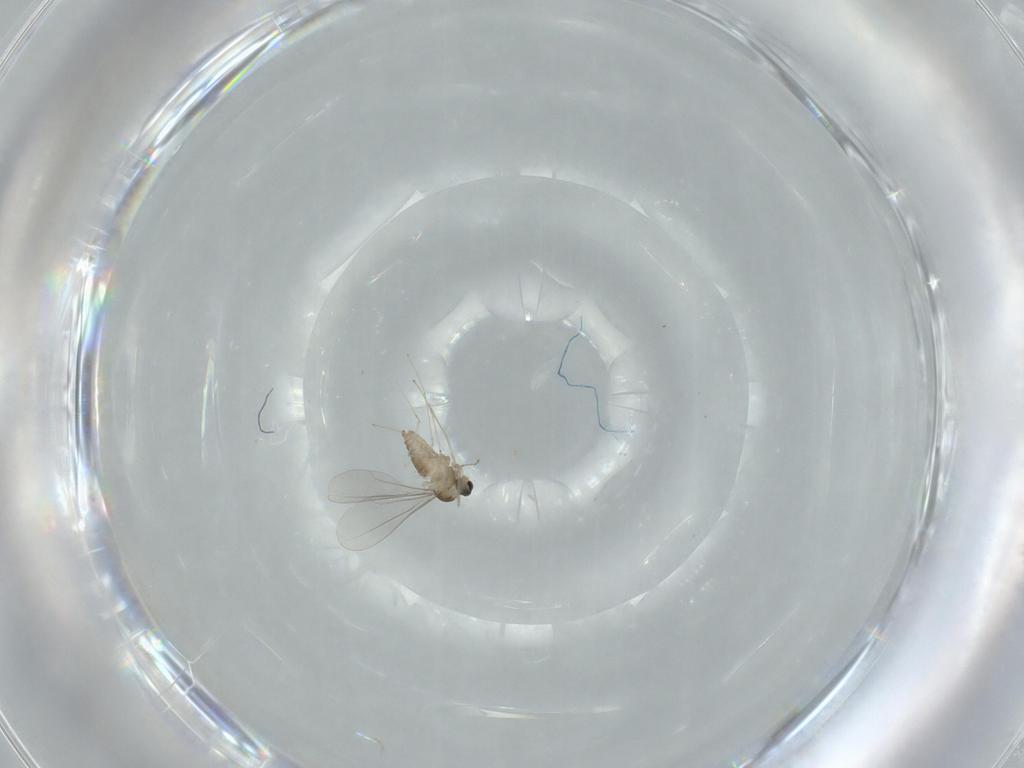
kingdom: Animalia
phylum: Arthropoda
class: Insecta
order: Diptera
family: Cecidomyiidae
